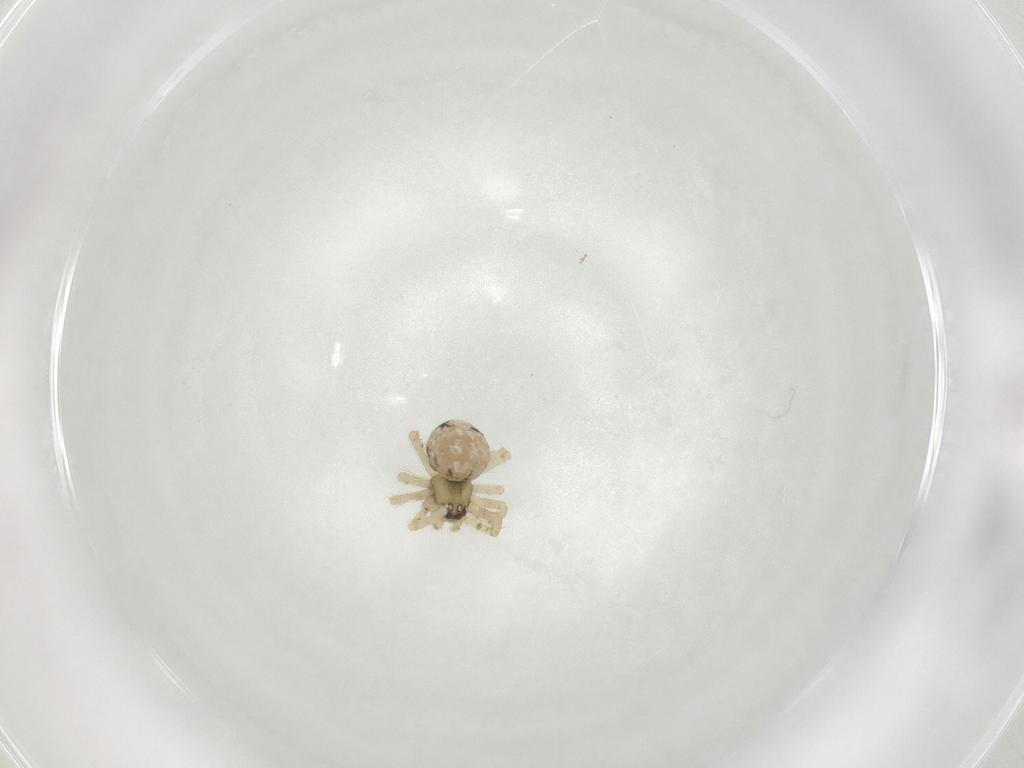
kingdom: Animalia
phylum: Arthropoda
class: Arachnida
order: Araneae
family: Theridiidae
